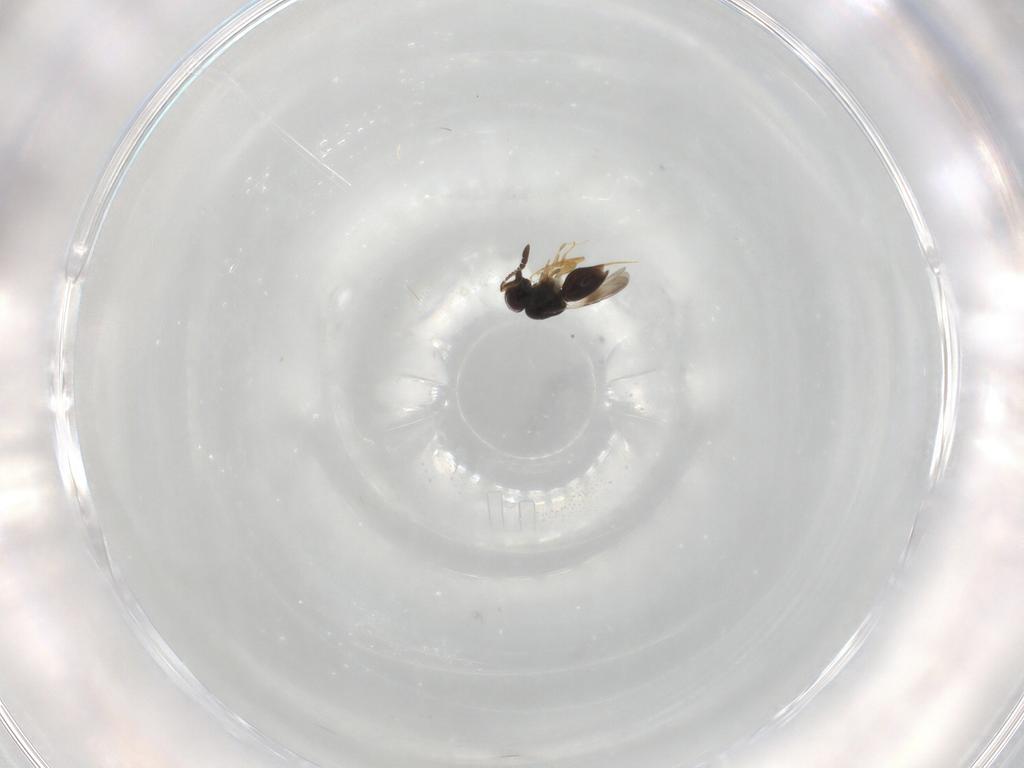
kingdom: Animalia
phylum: Arthropoda
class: Insecta
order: Hymenoptera
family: Ceraphronidae
